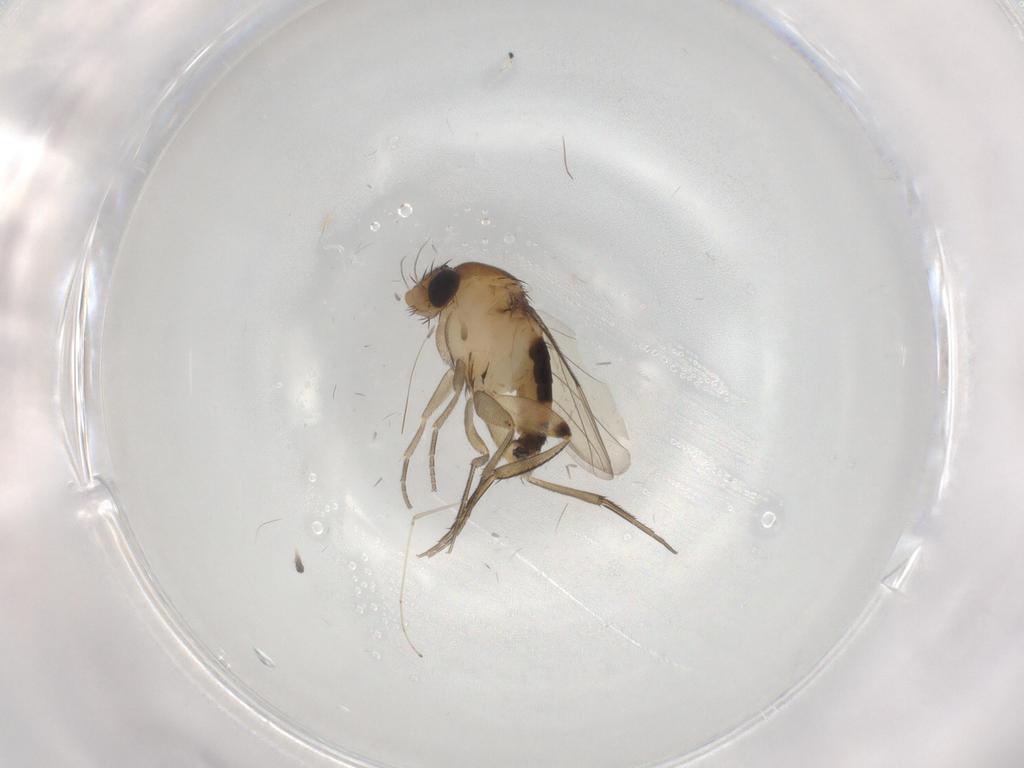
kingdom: Animalia
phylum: Arthropoda
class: Insecta
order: Diptera
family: Phoridae
